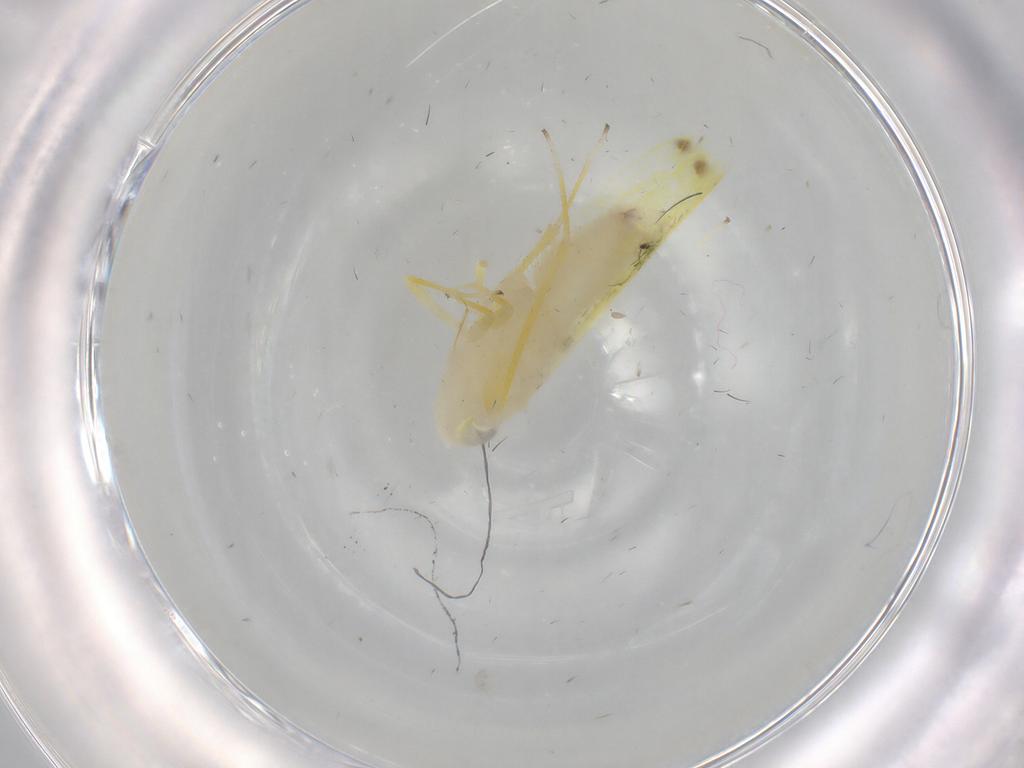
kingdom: Animalia
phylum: Arthropoda
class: Insecta
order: Hemiptera
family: Cicadellidae
